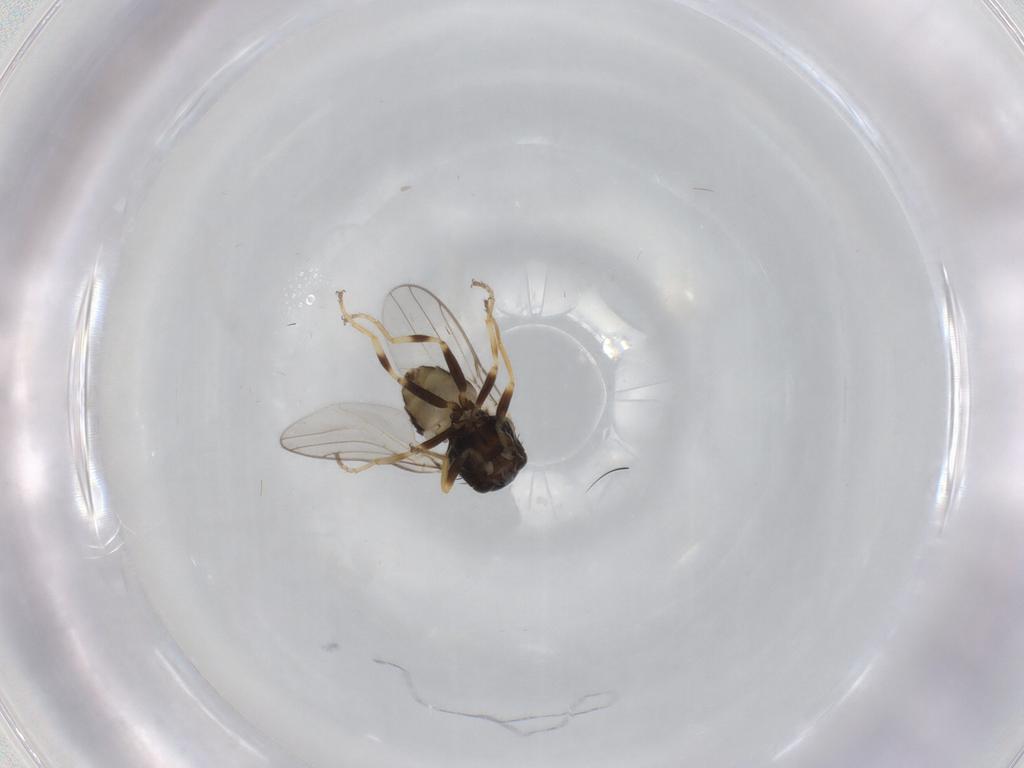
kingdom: Animalia
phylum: Arthropoda
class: Insecta
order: Diptera
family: Chloropidae
